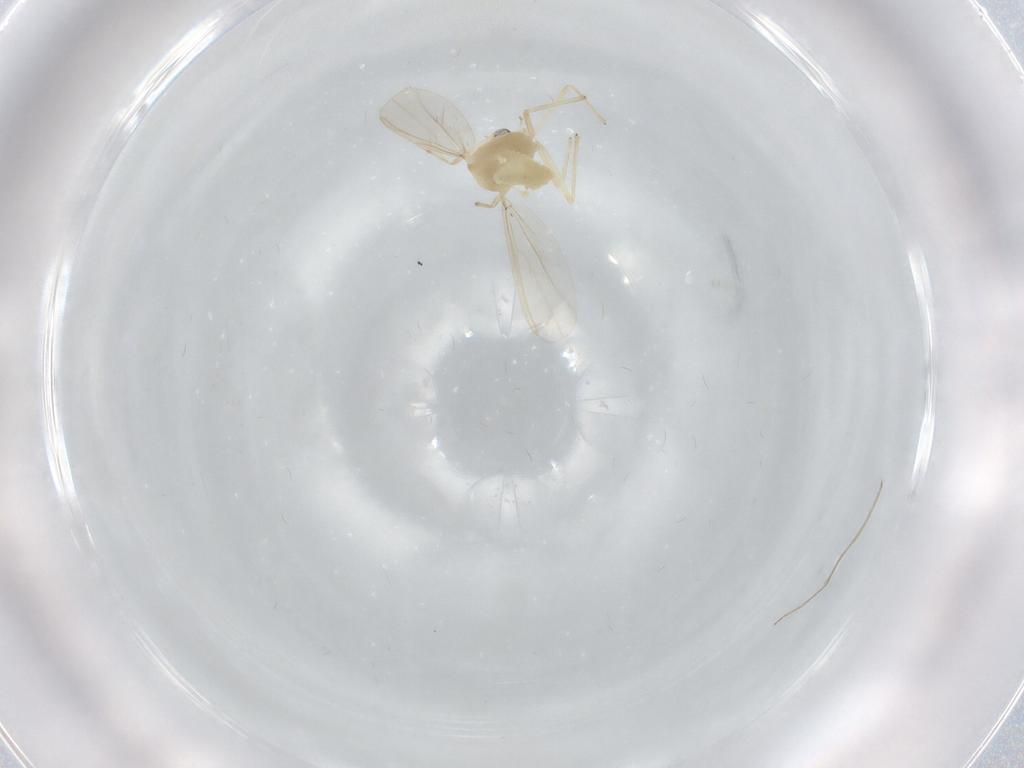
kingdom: Animalia
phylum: Arthropoda
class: Insecta
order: Diptera
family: Chironomidae
